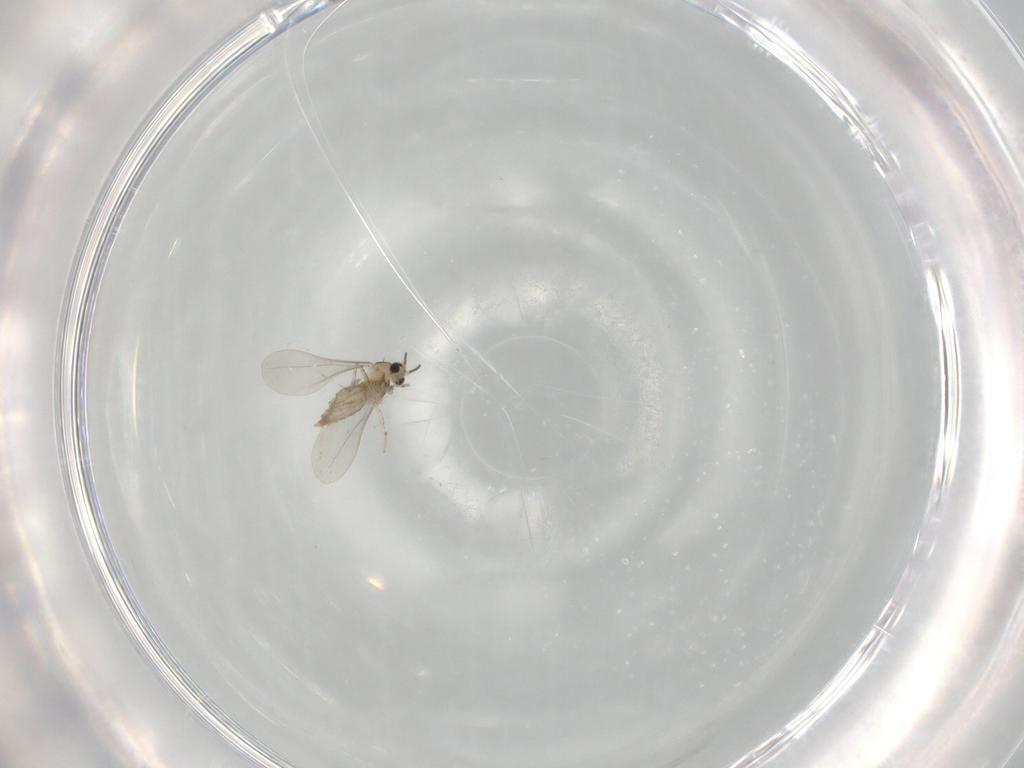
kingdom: Animalia
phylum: Arthropoda
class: Insecta
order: Diptera
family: Cecidomyiidae
